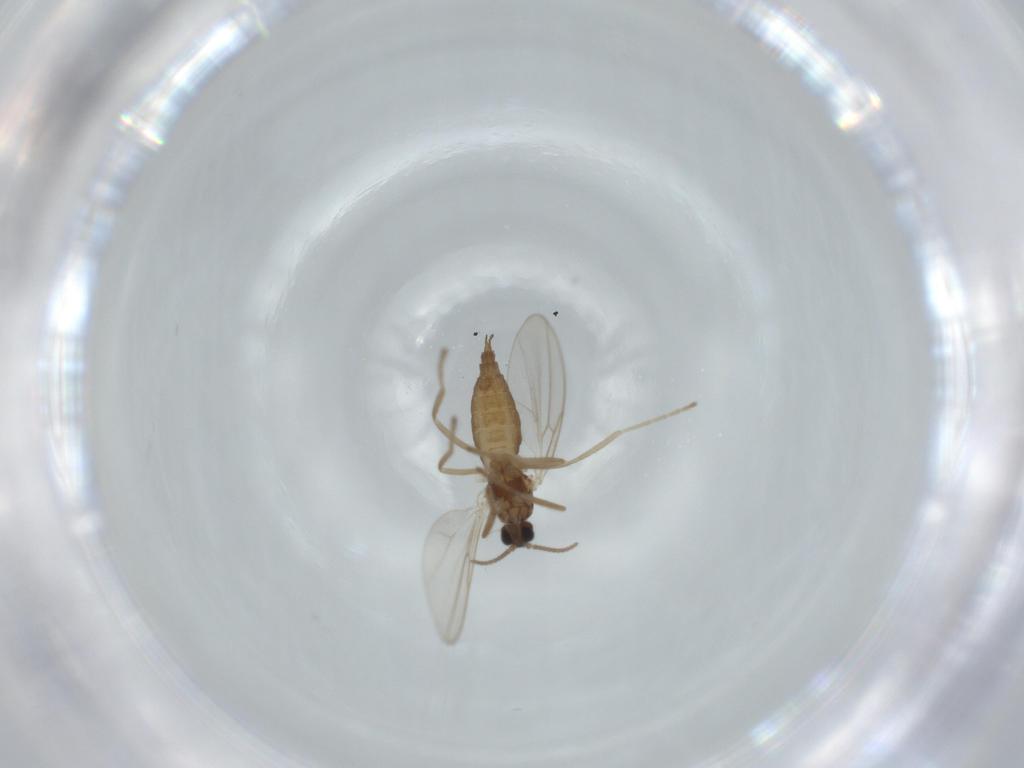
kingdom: Animalia
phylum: Arthropoda
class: Insecta
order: Diptera
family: Cecidomyiidae
